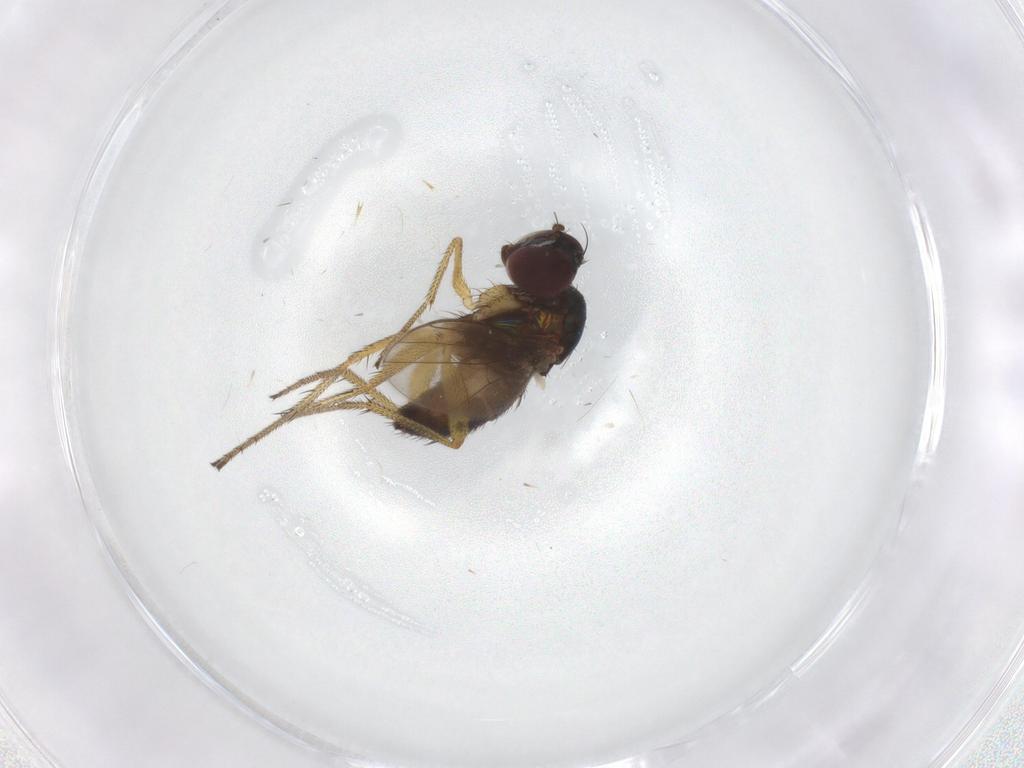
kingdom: Animalia
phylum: Arthropoda
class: Insecta
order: Diptera
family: Dolichopodidae
